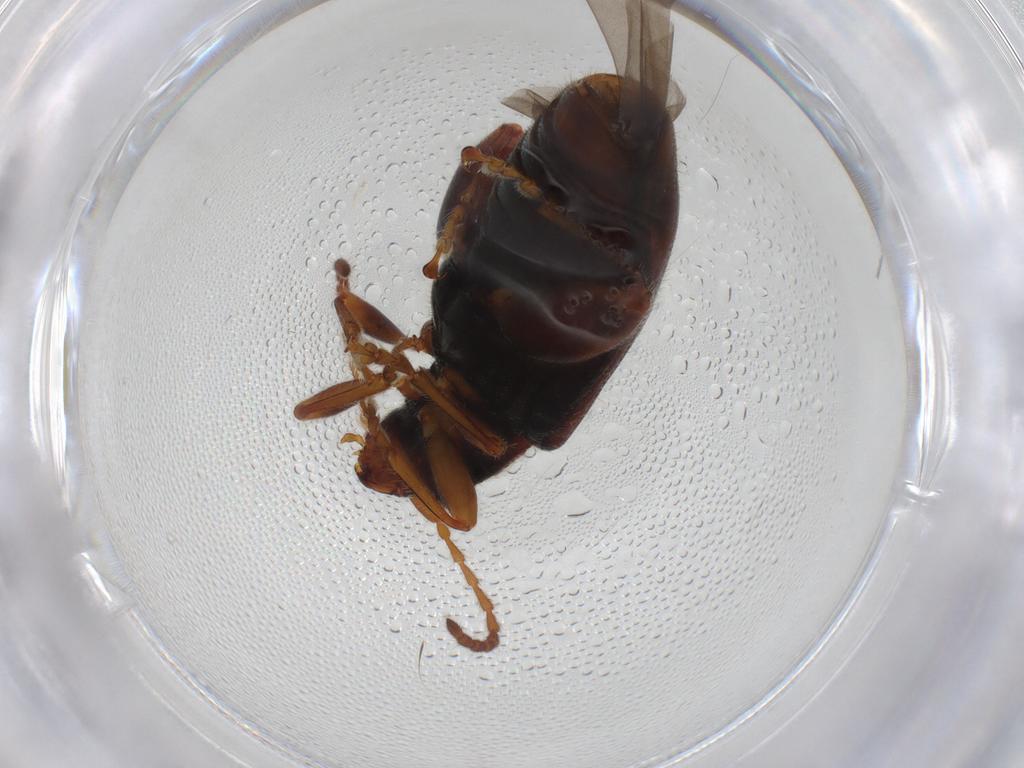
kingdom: Animalia
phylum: Arthropoda
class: Insecta
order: Coleoptera
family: Chrysomelidae
